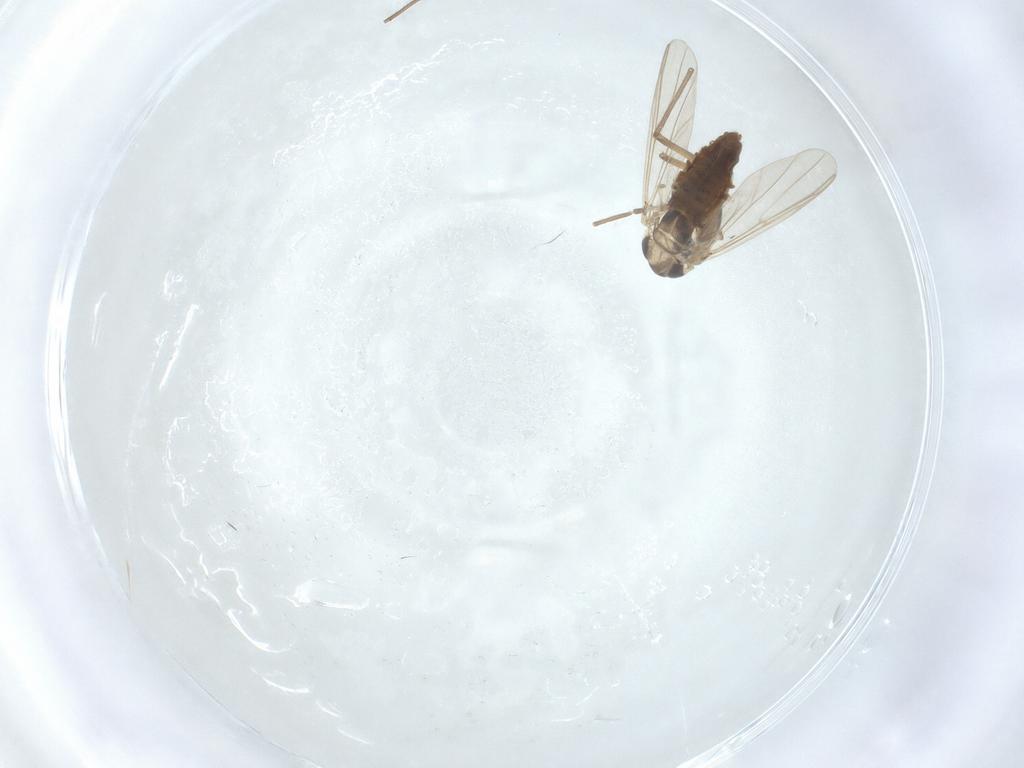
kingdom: Animalia
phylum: Arthropoda
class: Insecta
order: Diptera
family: Chironomidae
